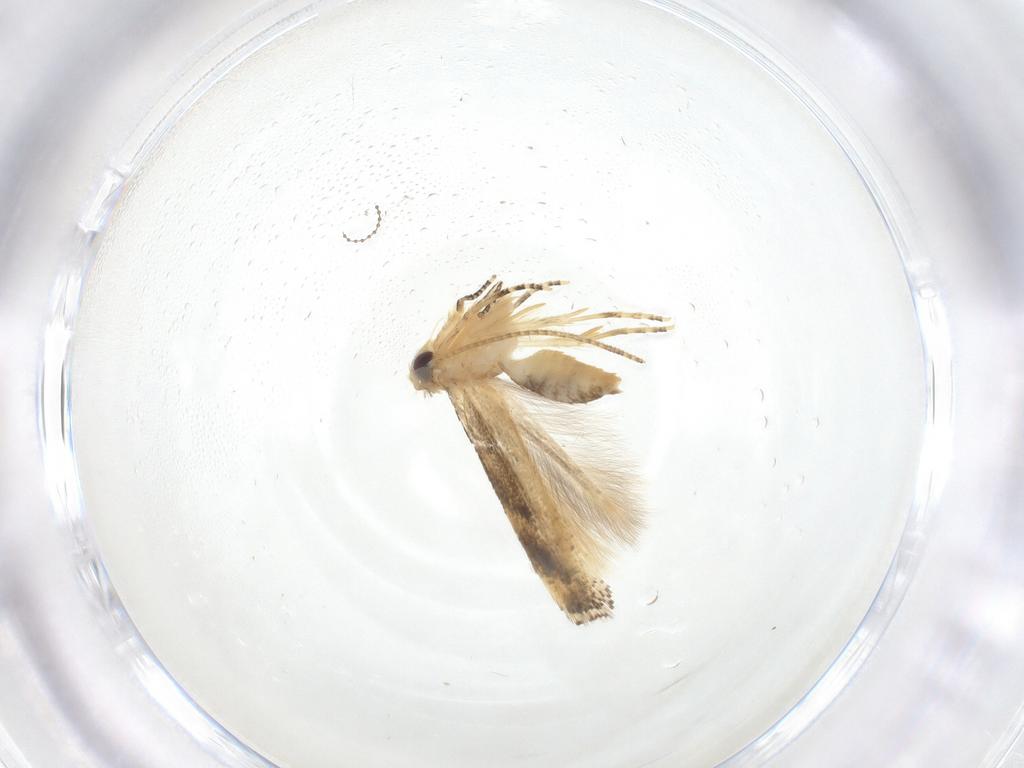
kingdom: Animalia
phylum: Arthropoda
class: Insecta
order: Lepidoptera
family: Bucculatricidae
